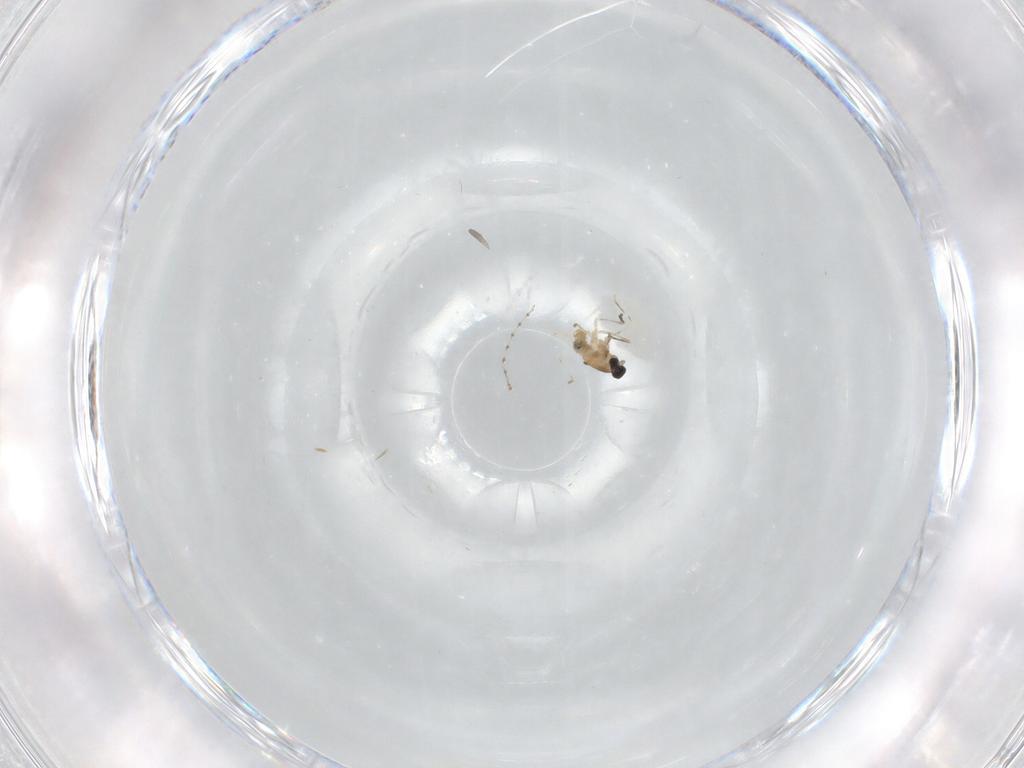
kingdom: Animalia
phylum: Arthropoda
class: Insecta
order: Diptera
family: Cecidomyiidae
